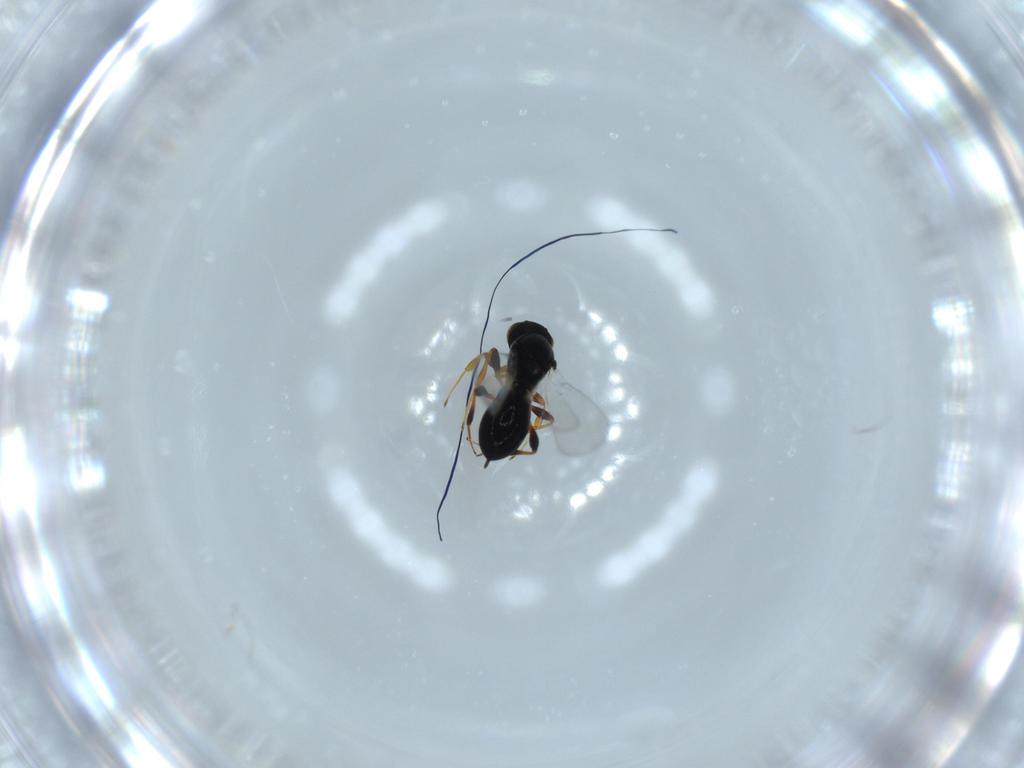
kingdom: Animalia
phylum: Arthropoda
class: Insecta
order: Hymenoptera
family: Platygastridae
